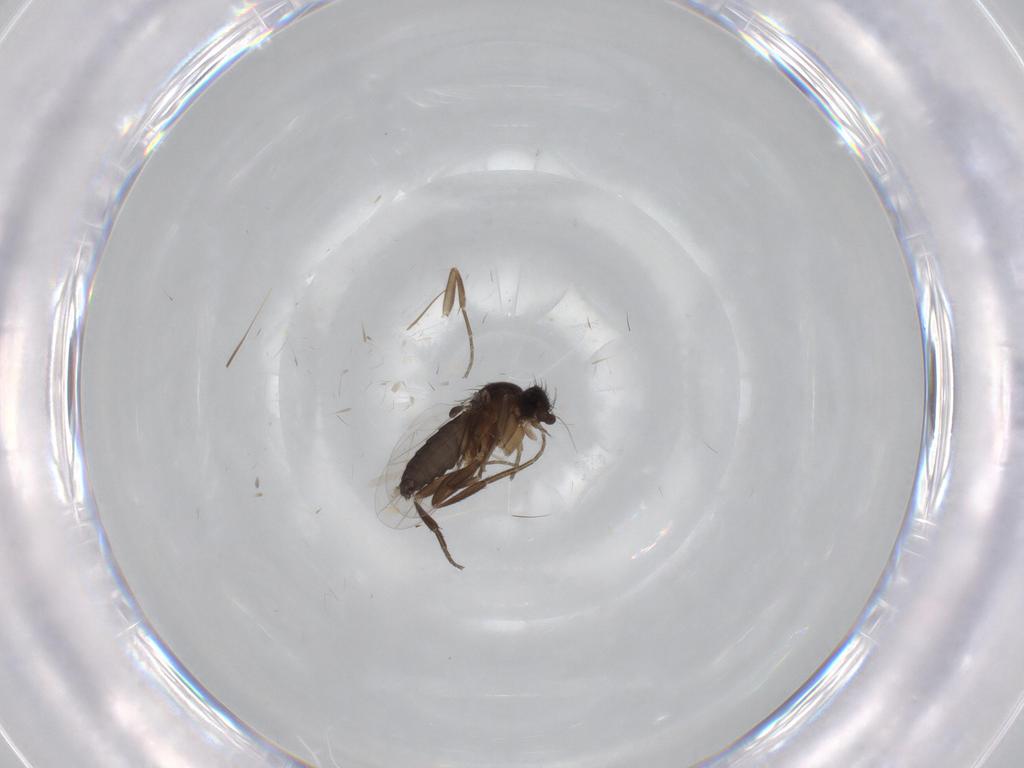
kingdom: Animalia
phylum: Arthropoda
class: Insecta
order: Diptera
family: Phoridae
